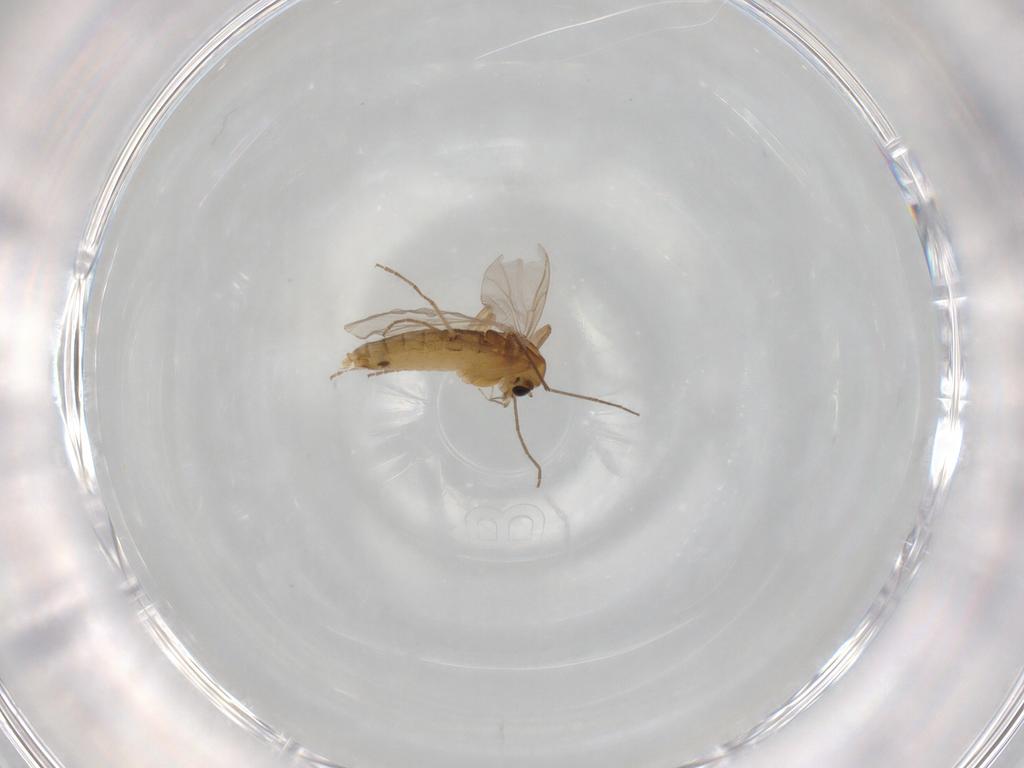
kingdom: Animalia
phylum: Arthropoda
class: Insecta
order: Diptera
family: Chironomidae
